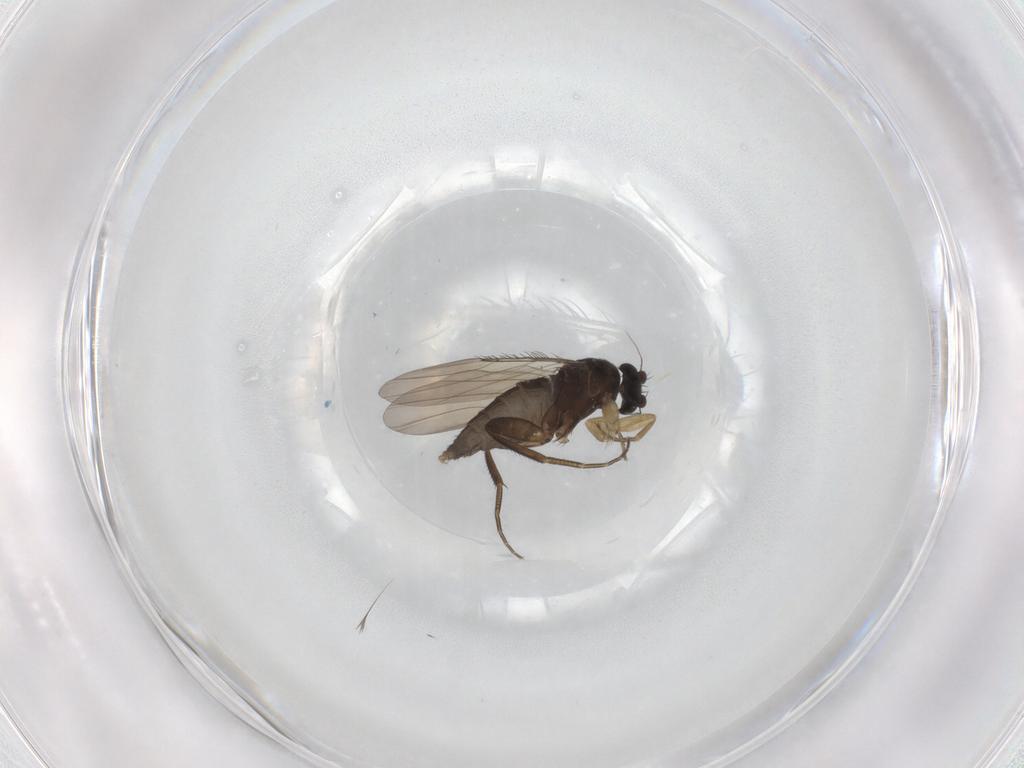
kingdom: Animalia
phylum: Arthropoda
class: Insecta
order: Diptera
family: Phoridae
